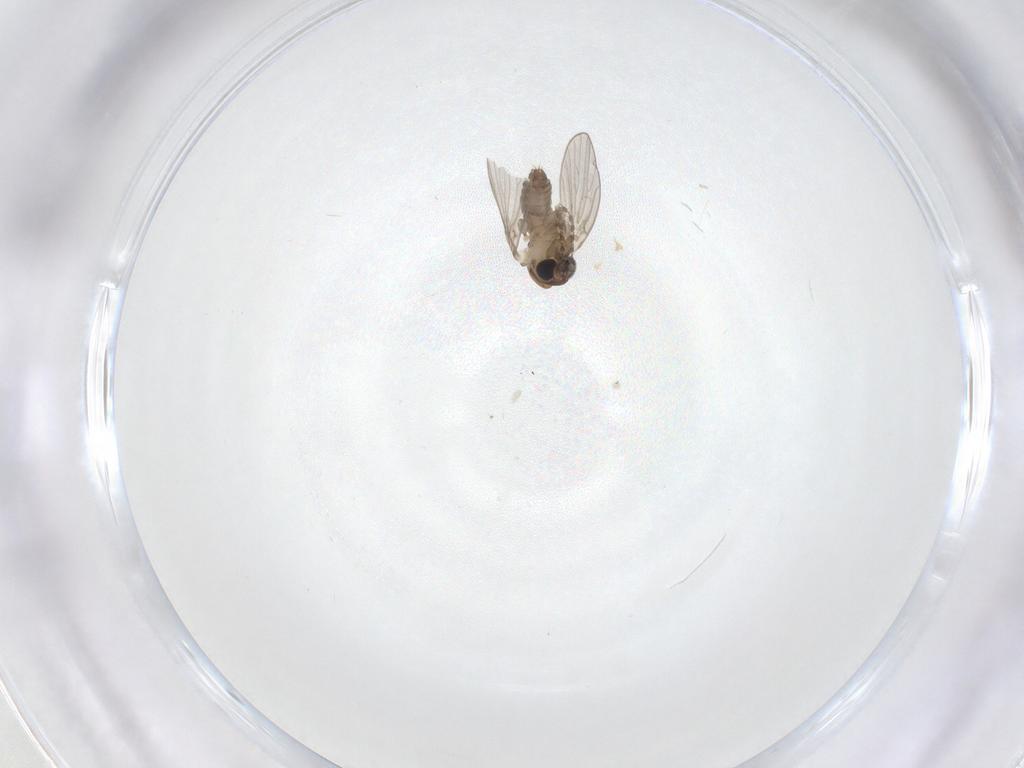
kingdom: Animalia
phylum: Arthropoda
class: Insecta
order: Diptera
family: Psychodidae
